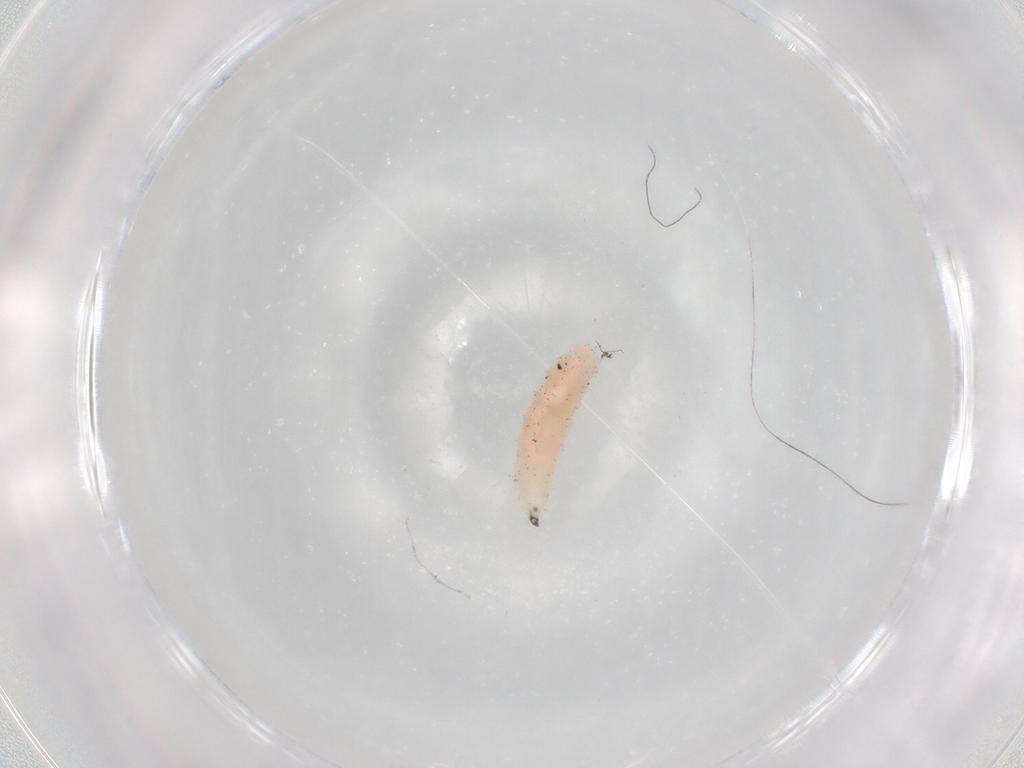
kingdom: Animalia
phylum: Arthropoda
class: Insecta
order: Diptera
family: Cecidomyiidae
